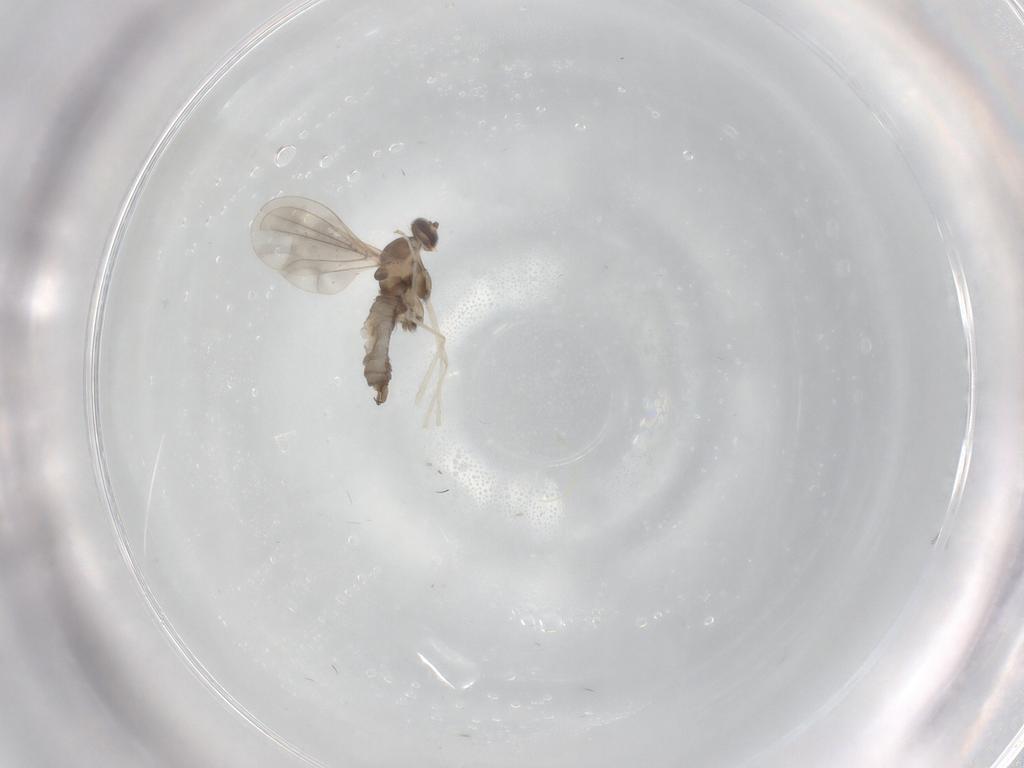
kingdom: Animalia
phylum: Arthropoda
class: Insecta
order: Diptera
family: Cecidomyiidae
